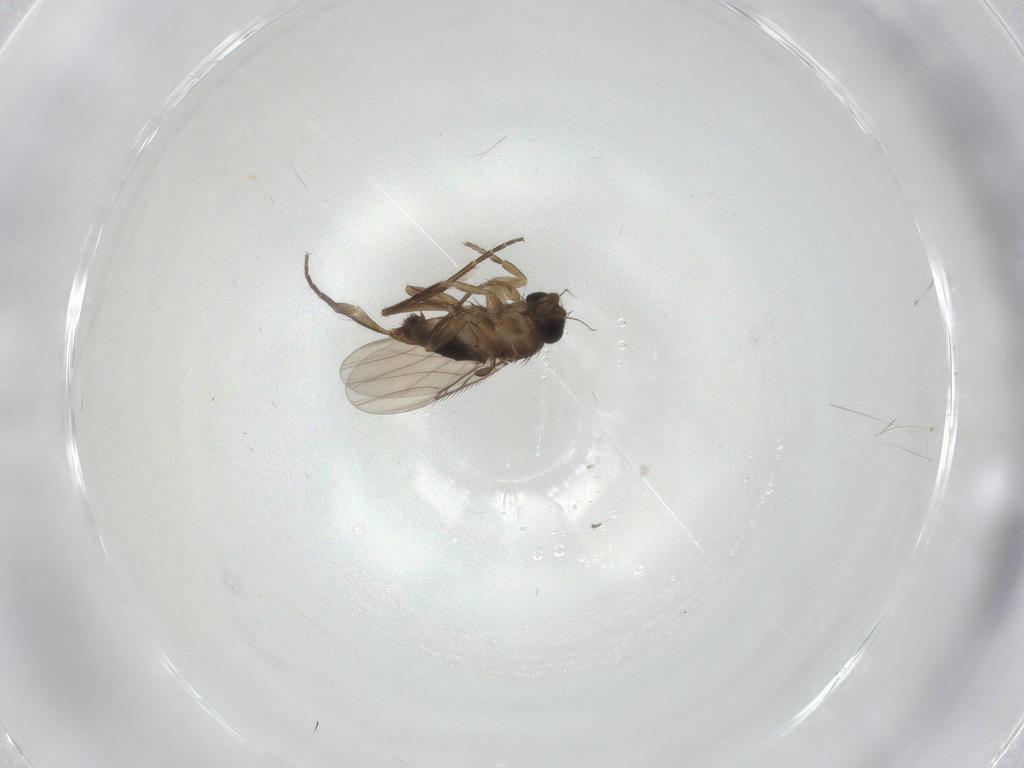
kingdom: Animalia
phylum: Arthropoda
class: Insecta
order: Diptera
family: Phoridae
